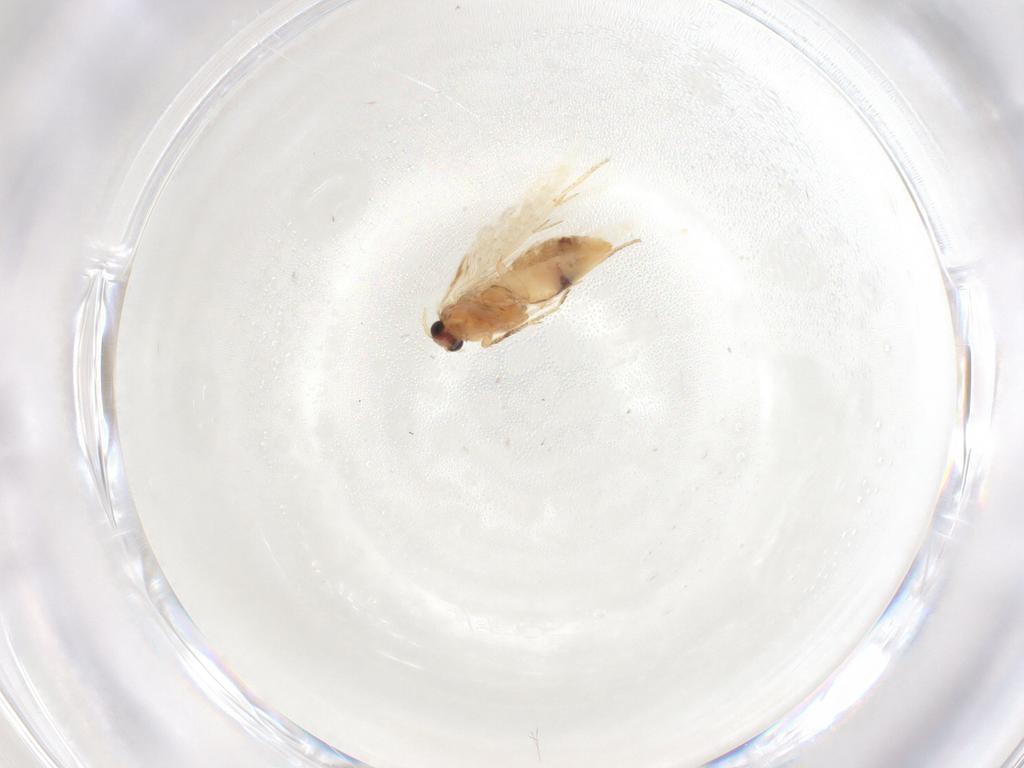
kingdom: Animalia
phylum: Arthropoda
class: Insecta
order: Lepidoptera
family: Nepticulidae
